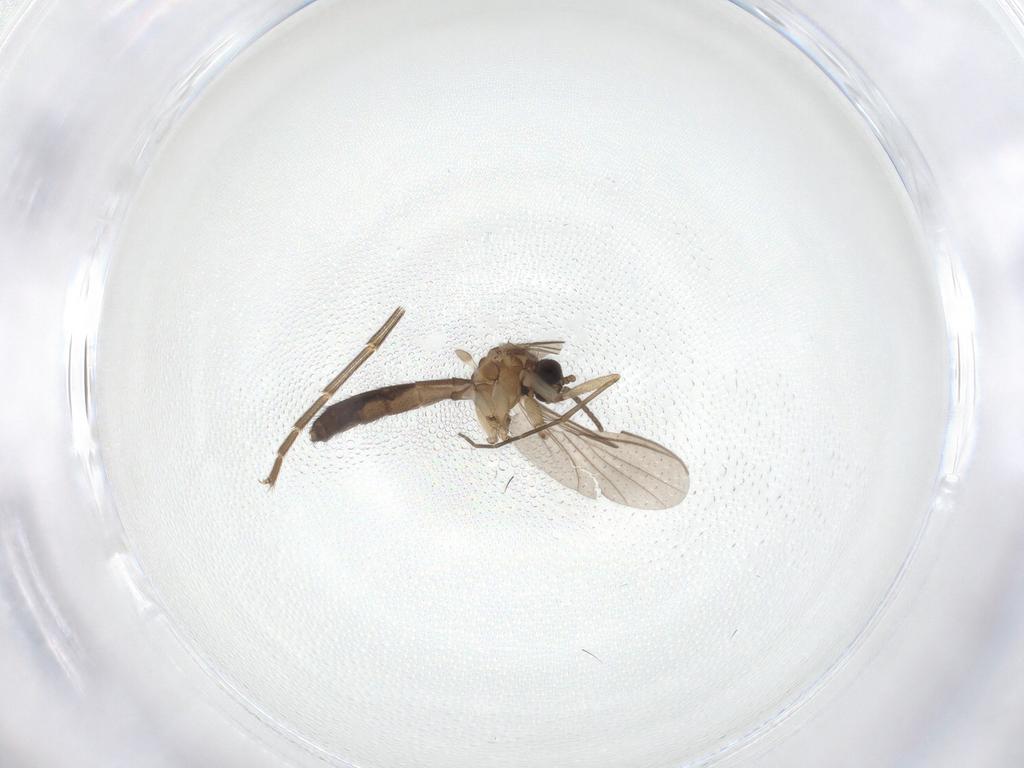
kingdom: Animalia
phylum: Arthropoda
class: Insecta
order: Diptera
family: Keroplatidae
